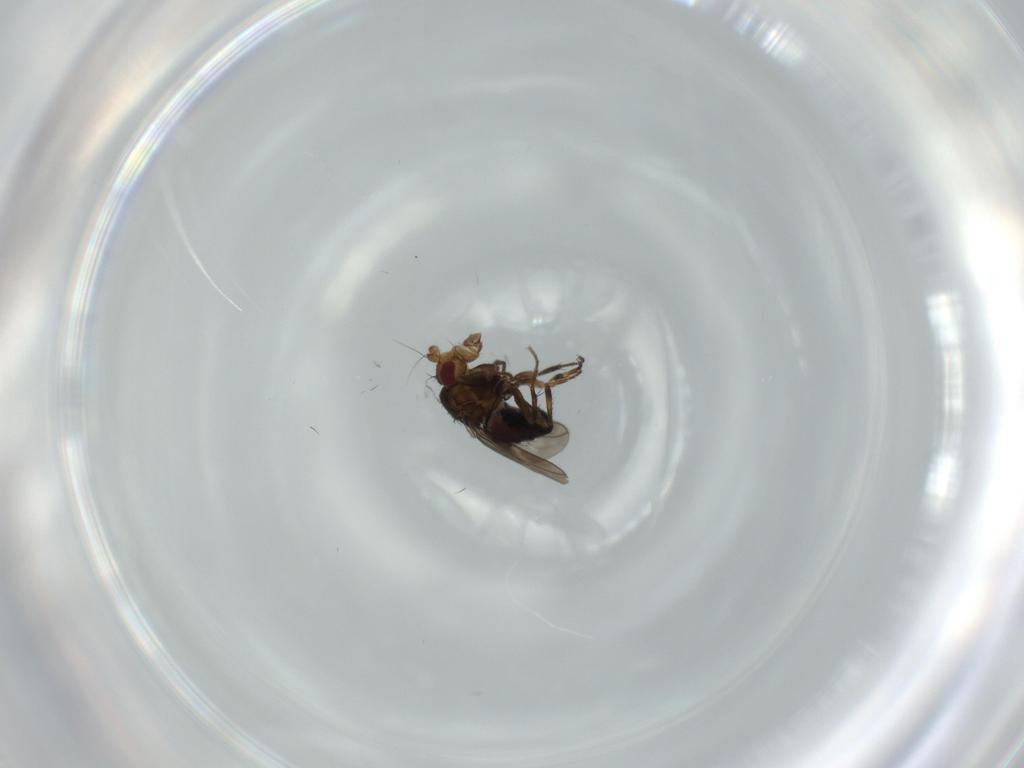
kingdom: Animalia
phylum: Arthropoda
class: Insecta
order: Diptera
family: Sphaeroceridae
